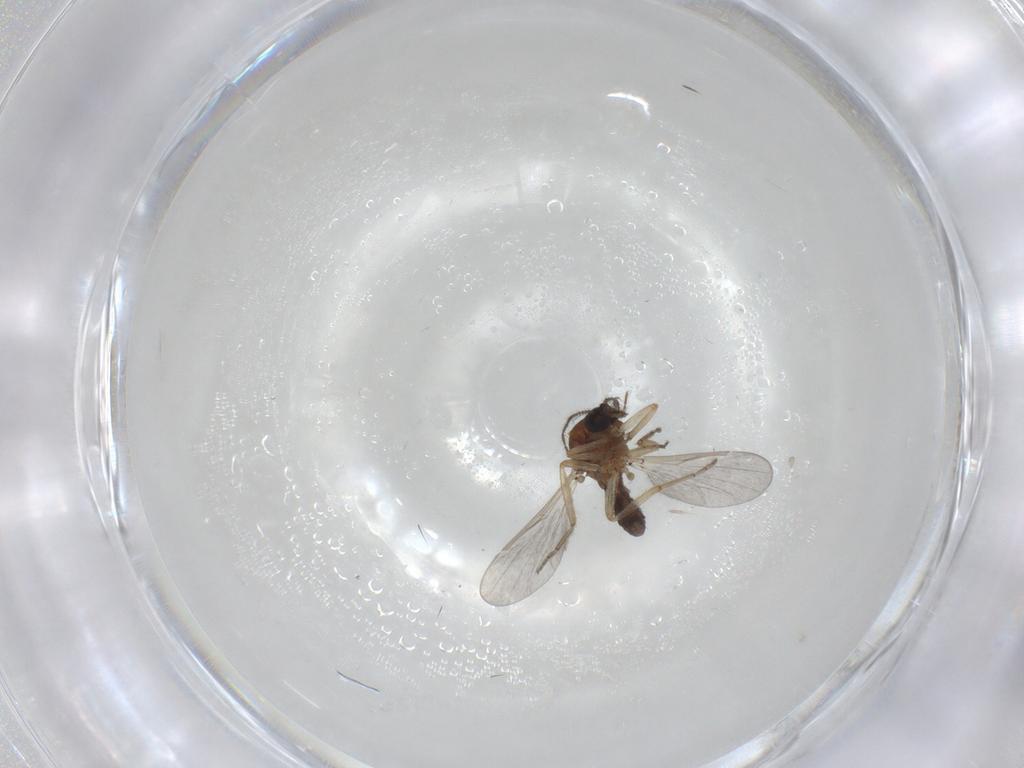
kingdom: Animalia
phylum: Arthropoda
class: Insecta
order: Diptera
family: Ceratopogonidae
